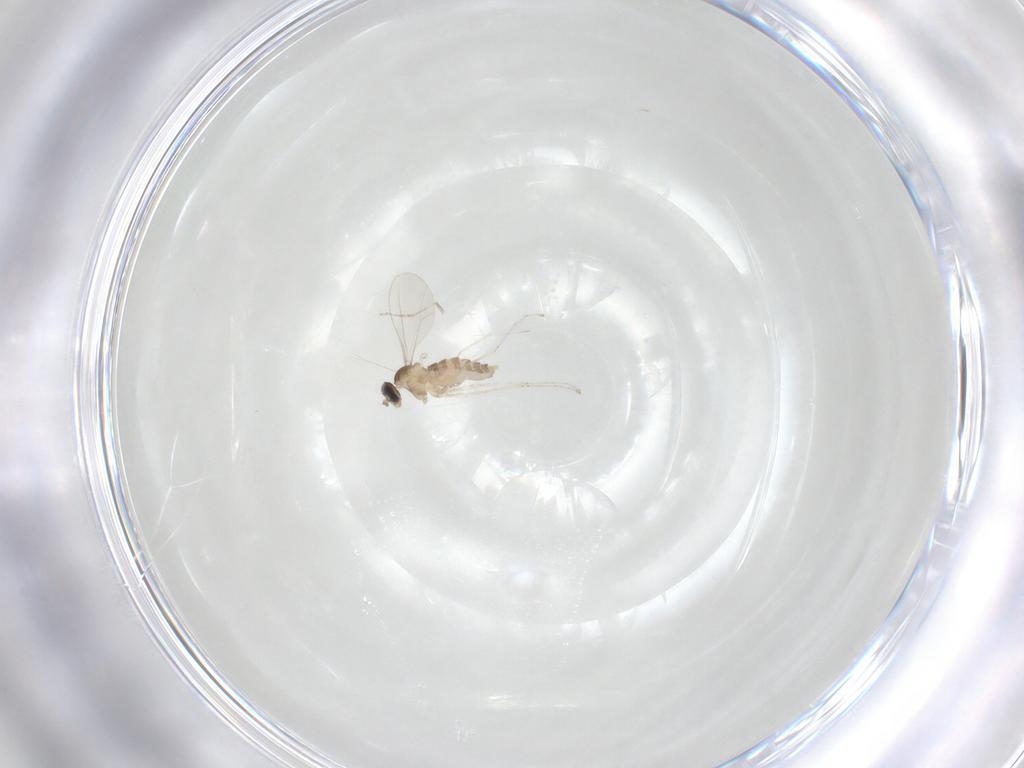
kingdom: Animalia
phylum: Arthropoda
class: Insecta
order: Diptera
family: Cecidomyiidae
